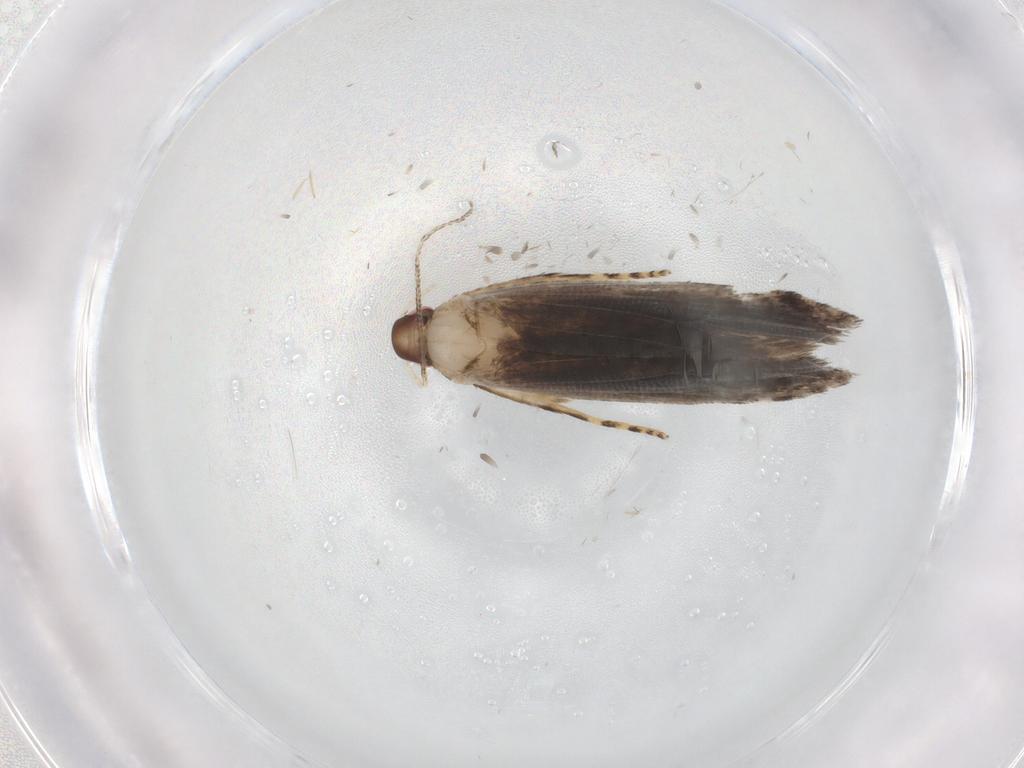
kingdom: Animalia
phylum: Arthropoda
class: Insecta
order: Lepidoptera
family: Gelechiidae
